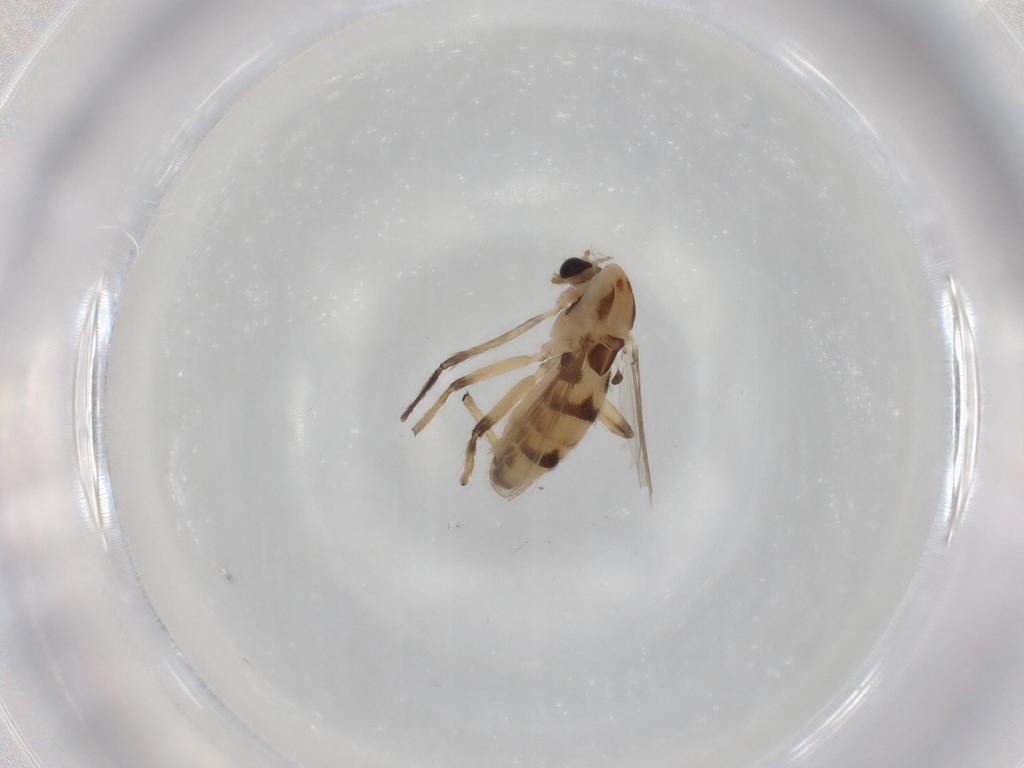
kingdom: Animalia
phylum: Arthropoda
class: Insecta
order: Diptera
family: Chironomidae
